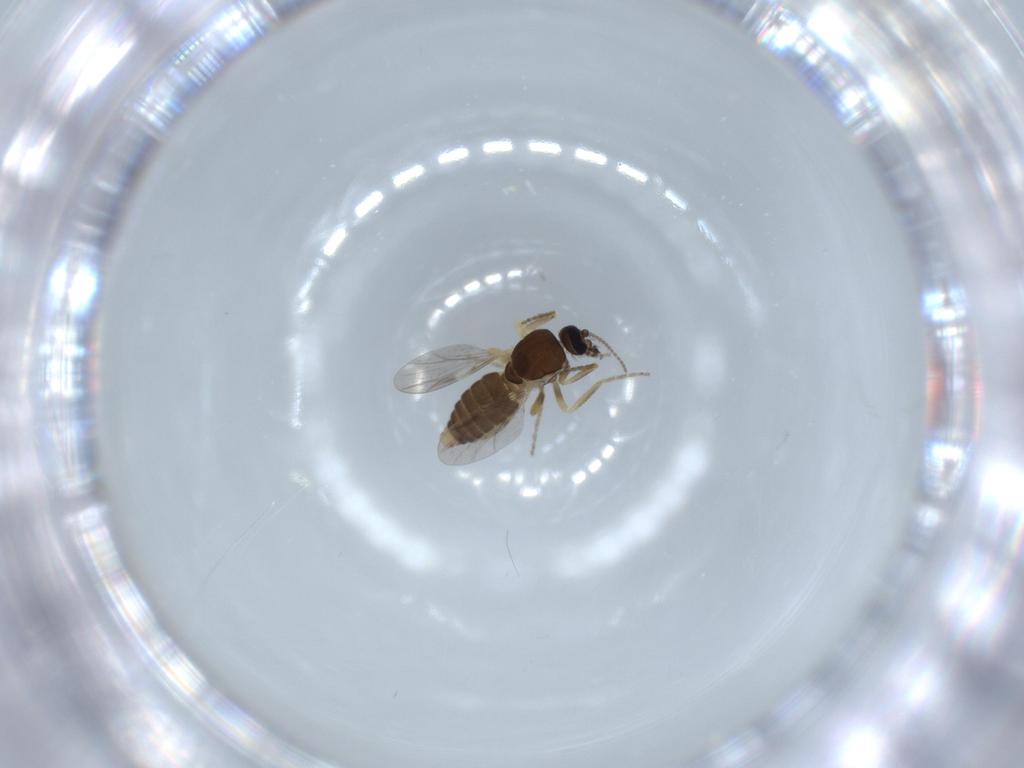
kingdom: Animalia
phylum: Arthropoda
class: Insecta
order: Diptera
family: Ceratopogonidae
